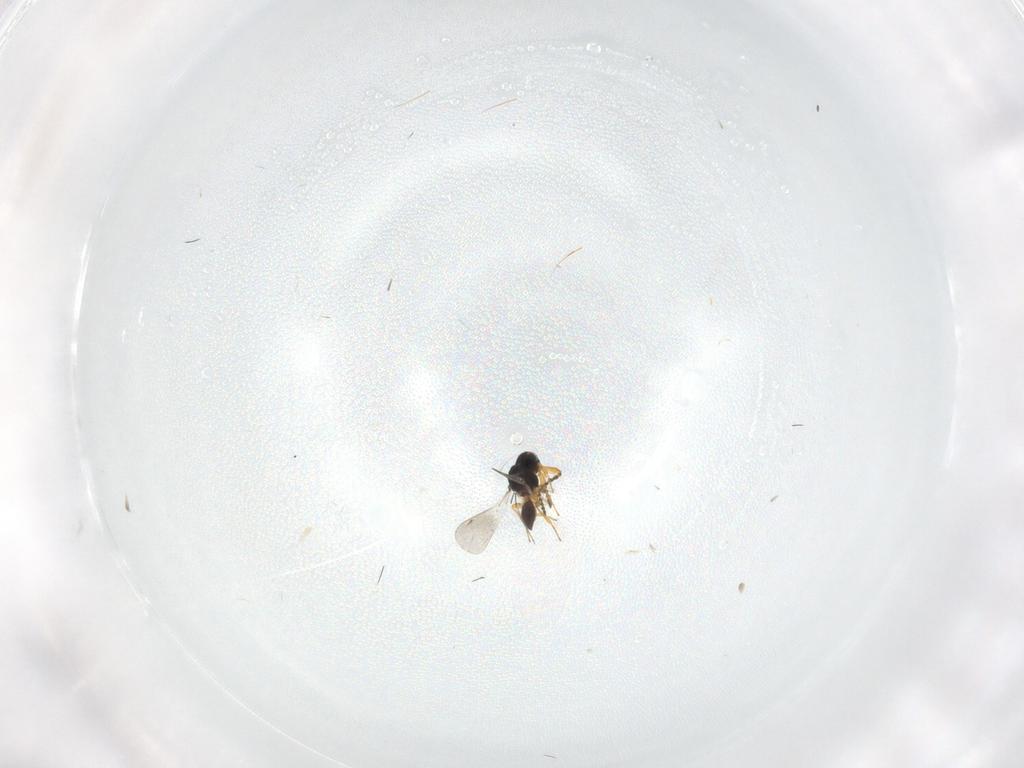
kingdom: Animalia
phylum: Arthropoda
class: Insecta
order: Hymenoptera
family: Platygastridae
